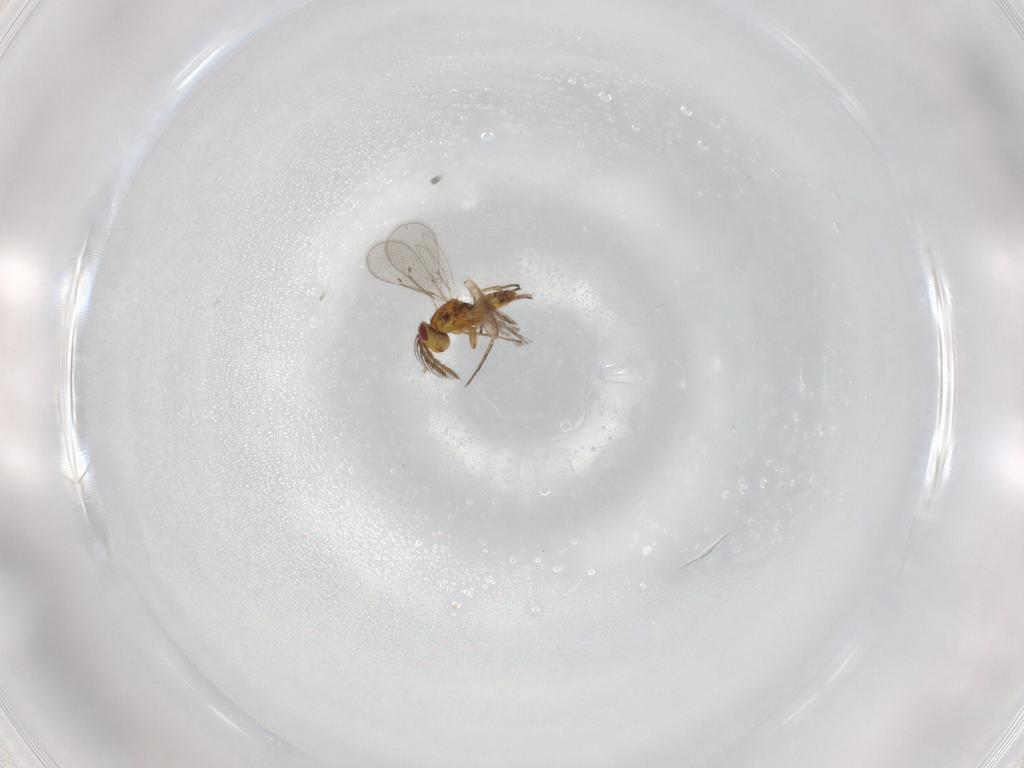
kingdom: Animalia
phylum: Arthropoda
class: Insecta
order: Hymenoptera
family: Eulophidae
